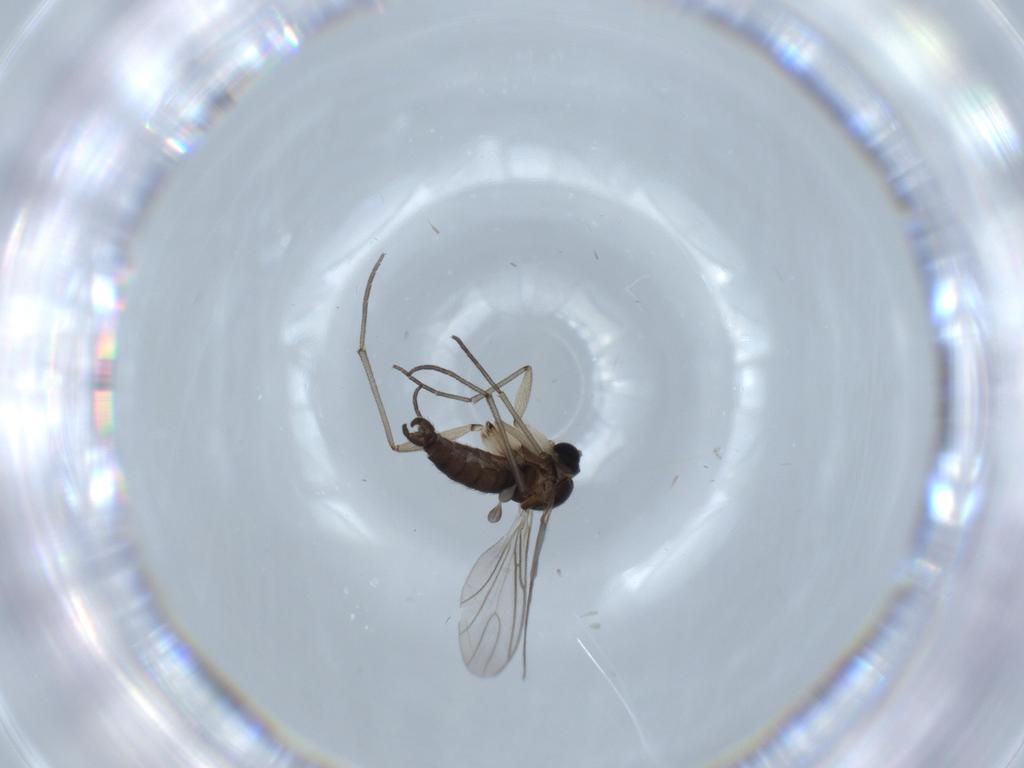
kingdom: Animalia
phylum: Arthropoda
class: Insecta
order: Diptera
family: Sciaridae
